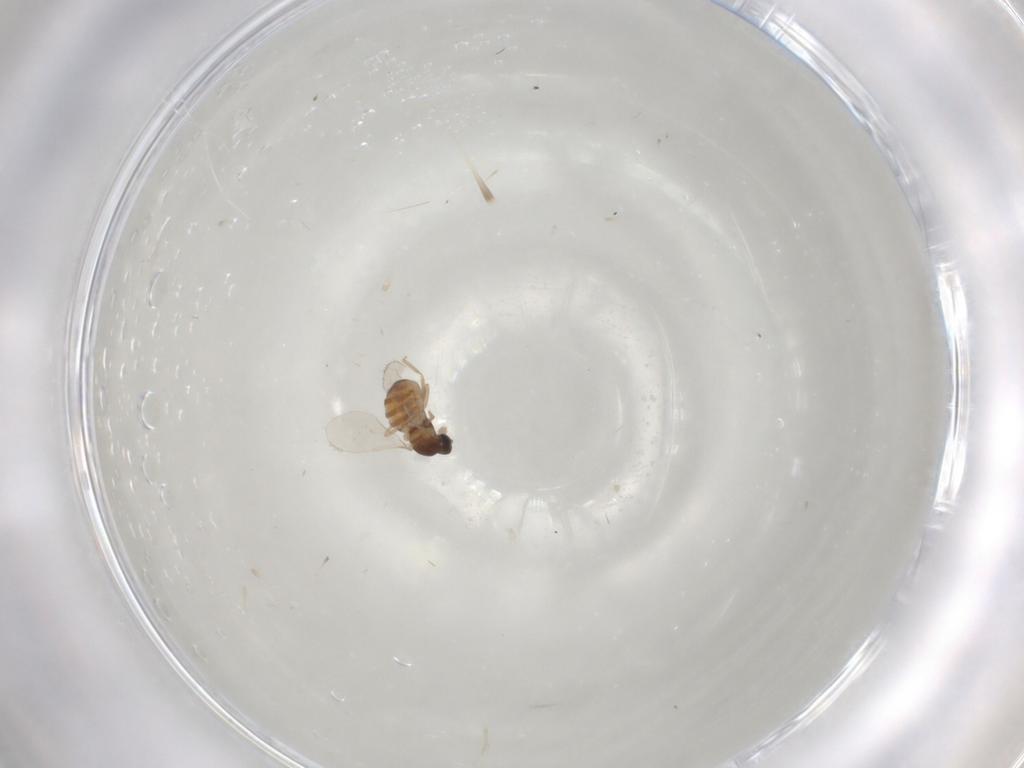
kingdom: Animalia
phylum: Arthropoda
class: Insecta
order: Diptera
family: Cecidomyiidae
